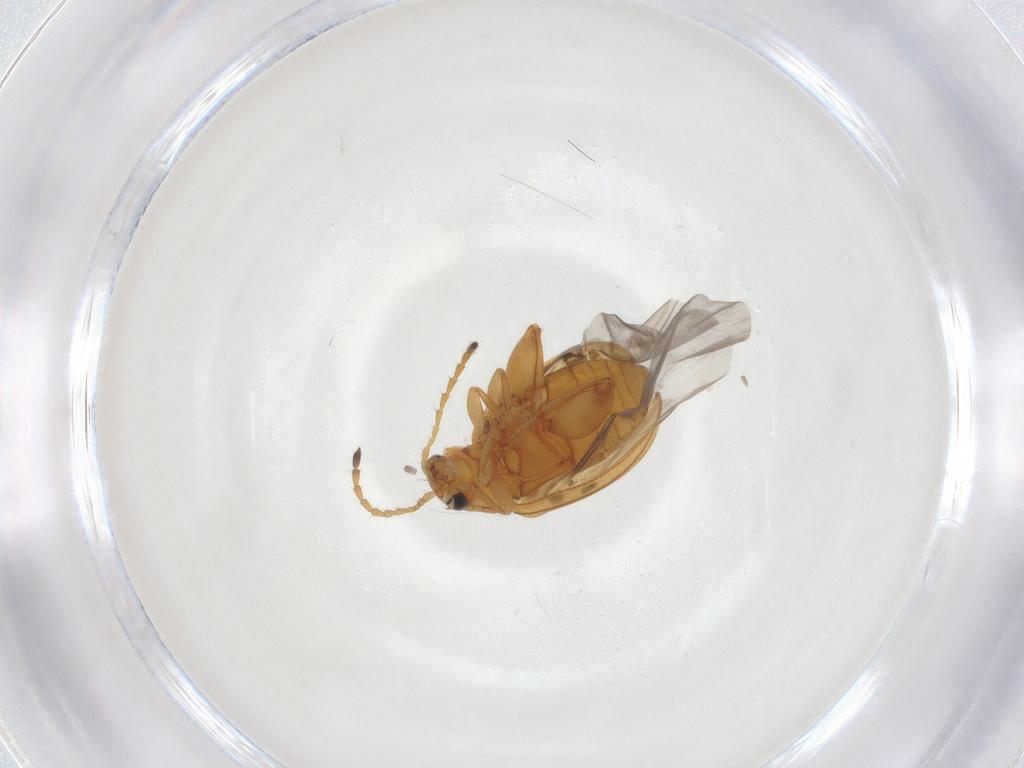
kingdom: Animalia
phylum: Arthropoda
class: Insecta
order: Coleoptera
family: Chrysomelidae
